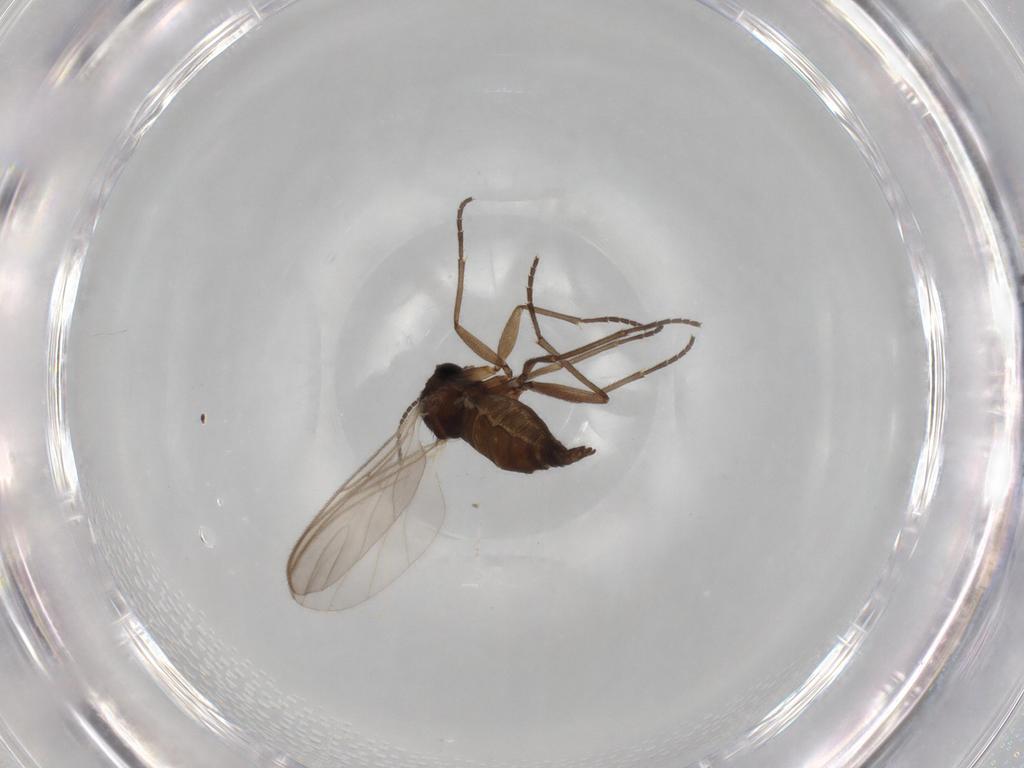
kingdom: Animalia
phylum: Arthropoda
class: Insecta
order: Diptera
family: Sciaridae
